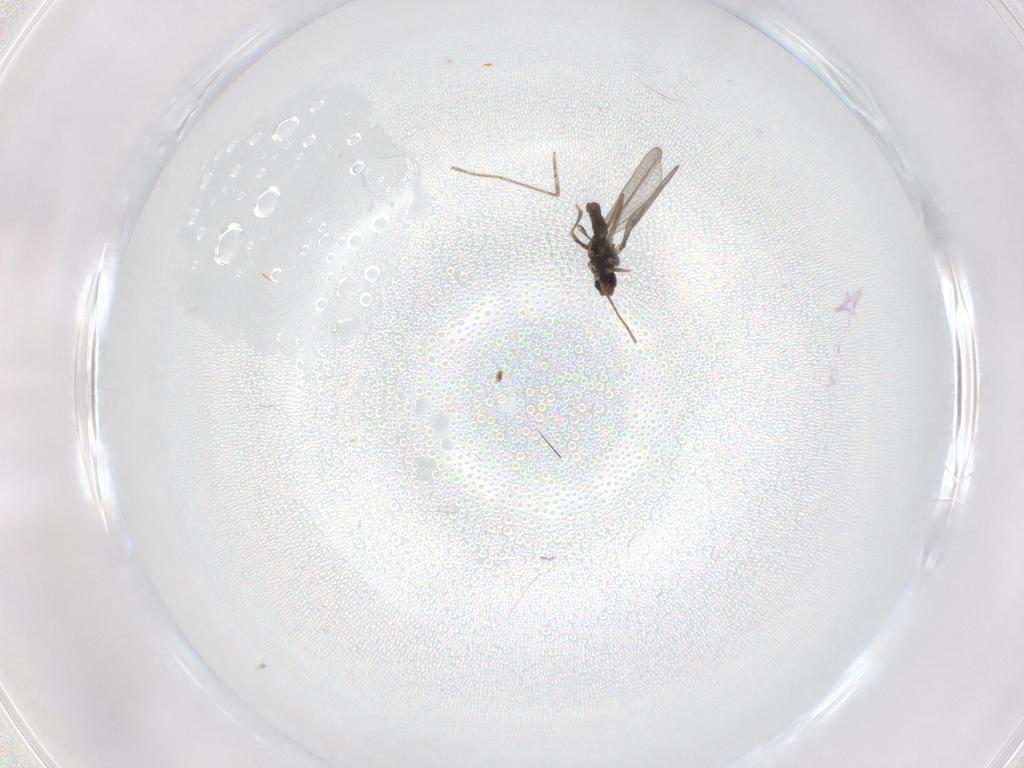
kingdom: Animalia
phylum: Arthropoda
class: Insecta
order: Diptera
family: Cecidomyiidae
